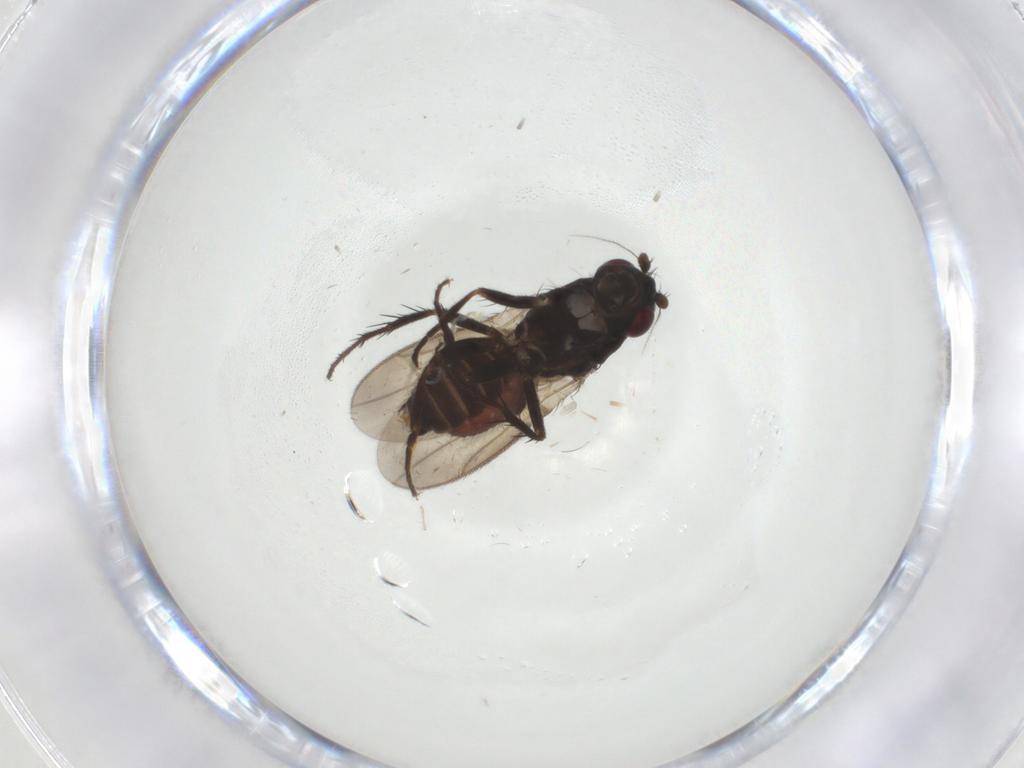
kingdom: Animalia
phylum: Arthropoda
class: Insecta
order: Diptera
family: Sphaeroceridae
